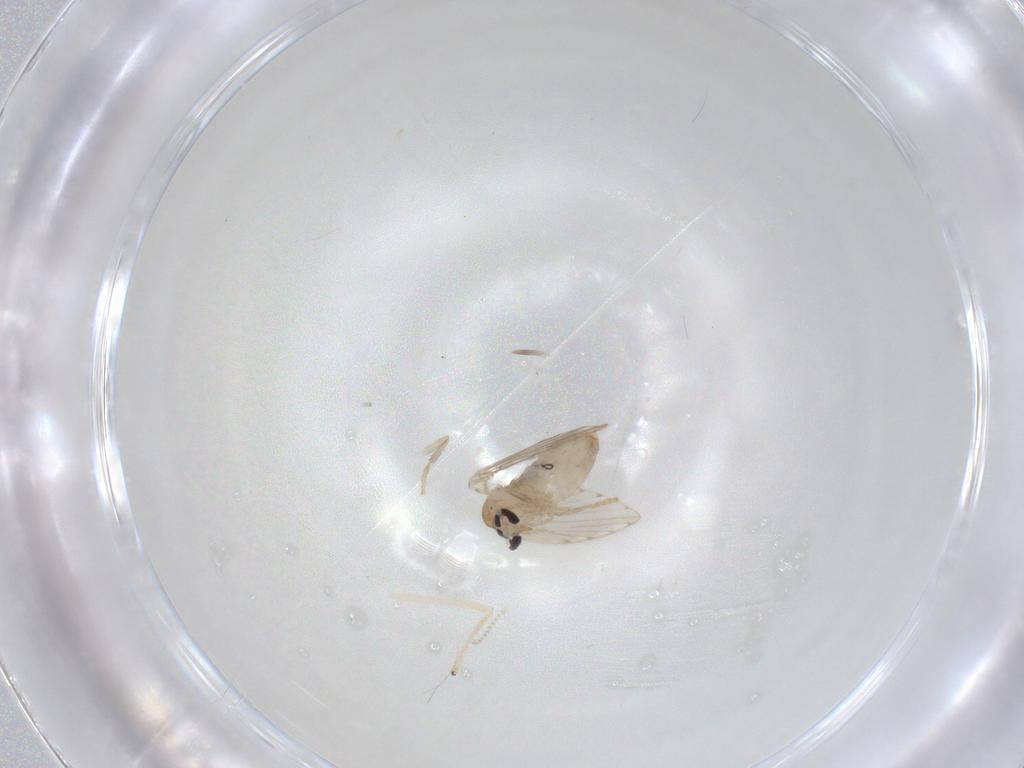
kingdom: Animalia
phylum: Arthropoda
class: Insecta
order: Diptera
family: Psychodidae
